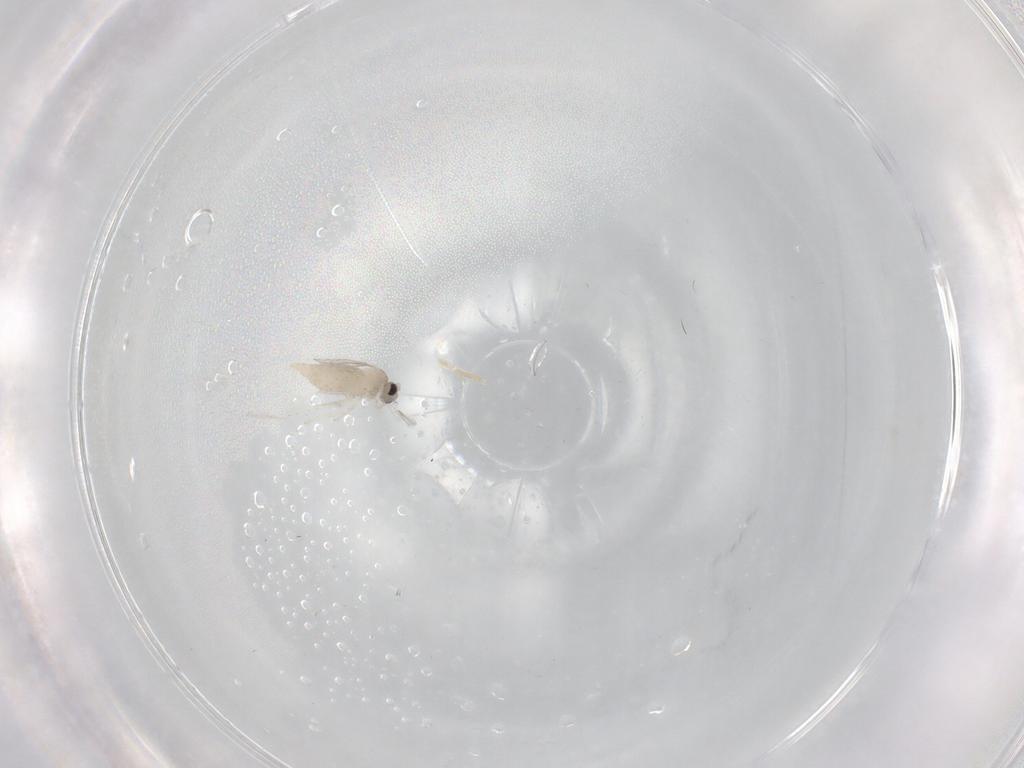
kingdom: Animalia
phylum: Arthropoda
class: Insecta
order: Diptera
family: Cecidomyiidae
